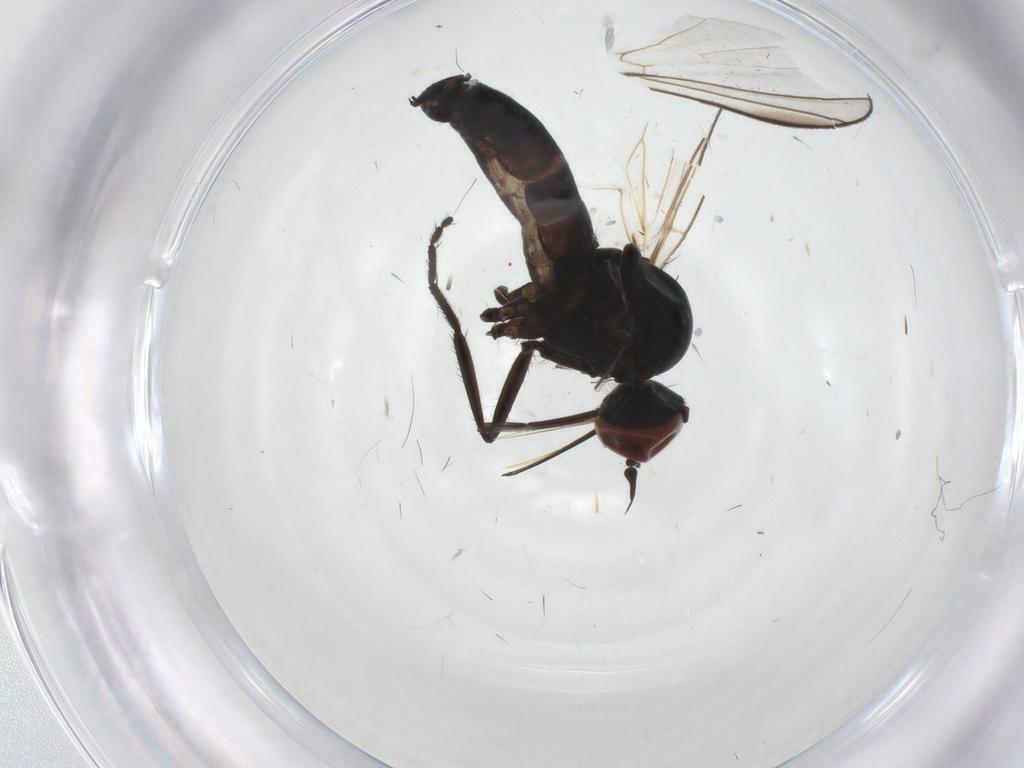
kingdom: Animalia
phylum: Arthropoda
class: Insecta
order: Diptera
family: Empididae
